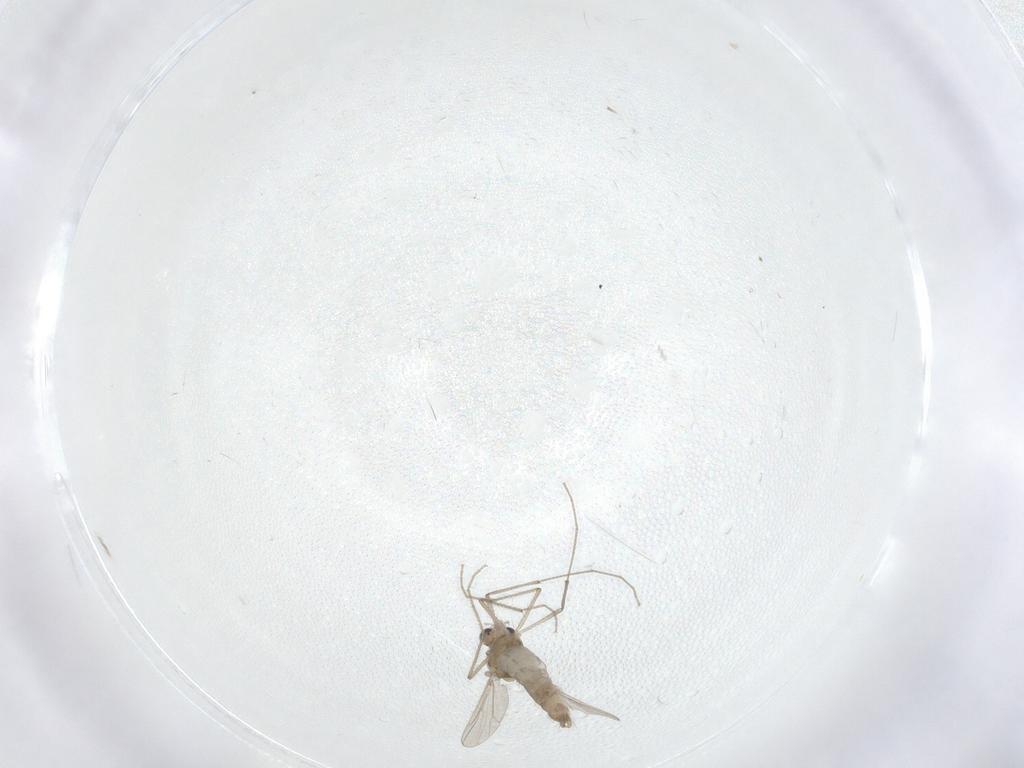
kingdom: Animalia
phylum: Arthropoda
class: Insecta
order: Diptera
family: Chironomidae
